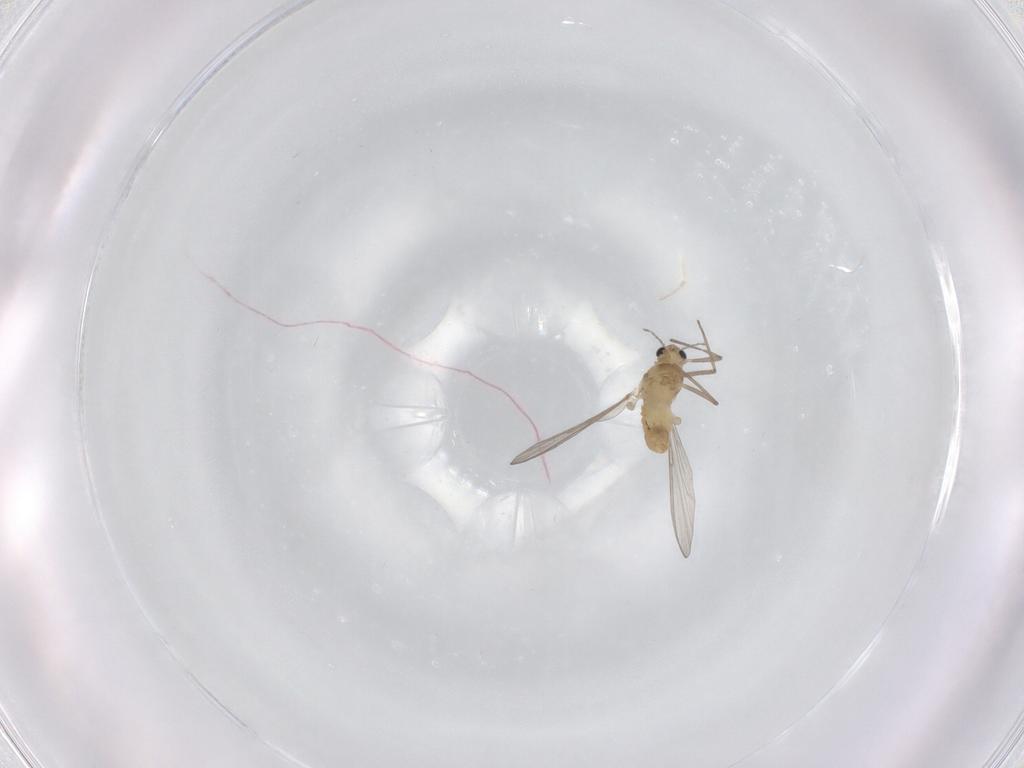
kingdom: Animalia
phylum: Arthropoda
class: Insecta
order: Diptera
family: Chironomidae
